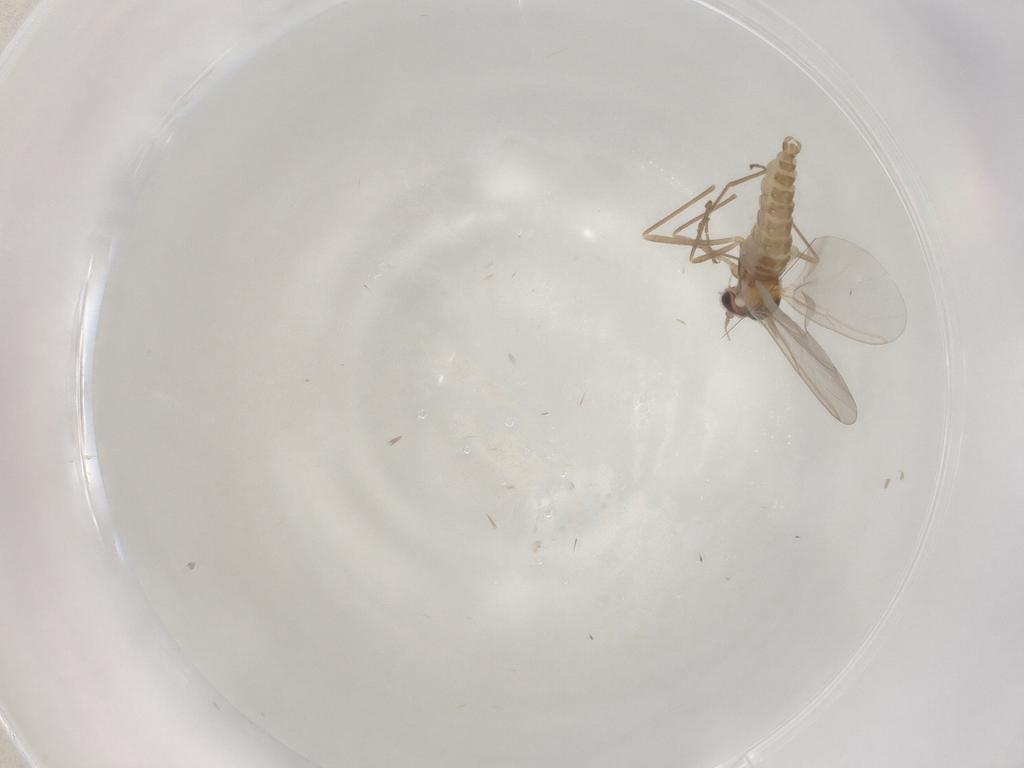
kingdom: Animalia
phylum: Arthropoda
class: Insecta
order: Diptera
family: Cecidomyiidae
